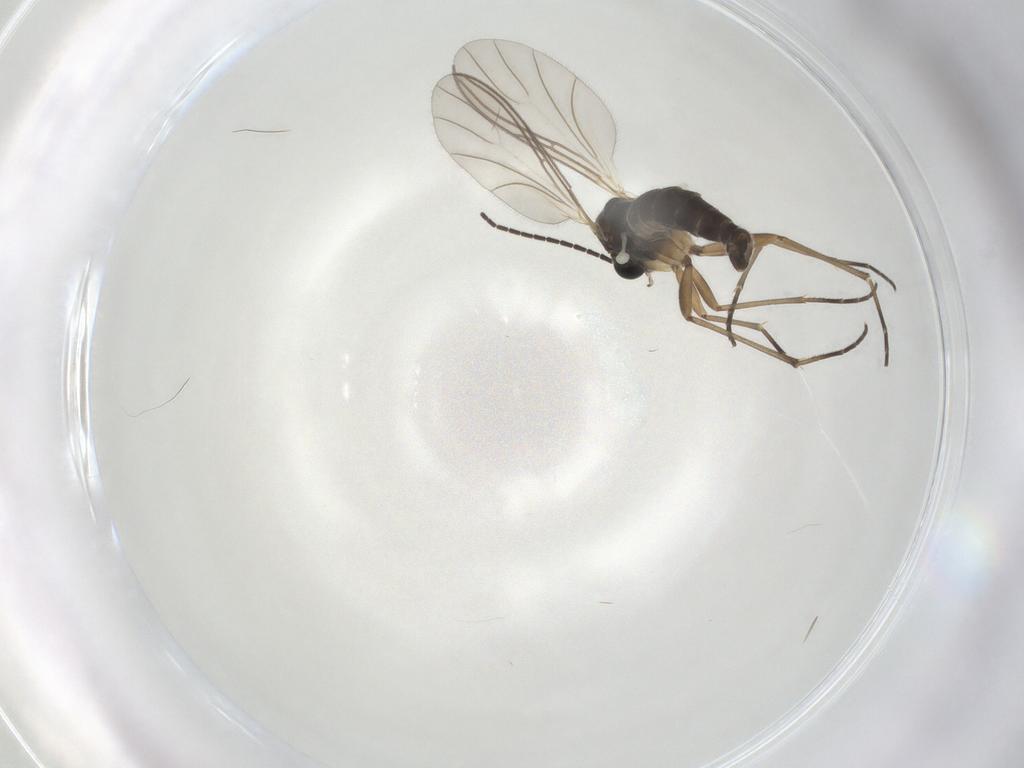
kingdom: Animalia
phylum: Arthropoda
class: Insecta
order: Diptera
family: Sciaridae
